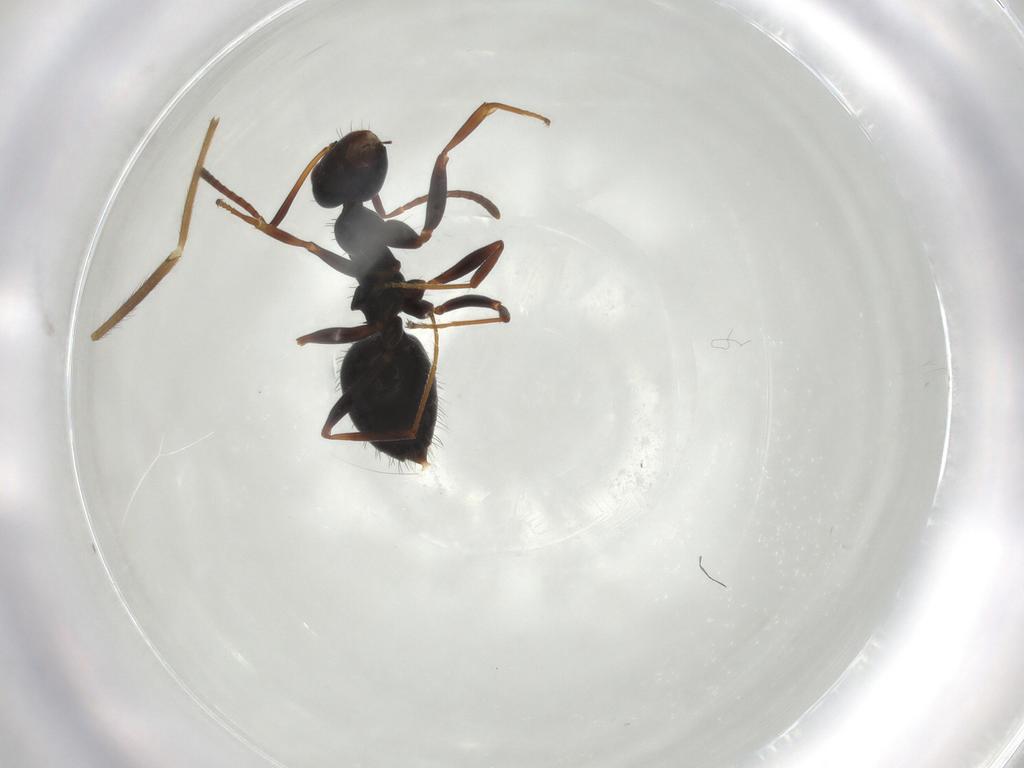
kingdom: Animalia
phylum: Arthropoda
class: Insecta
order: Hymenoptera
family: Formicidae
